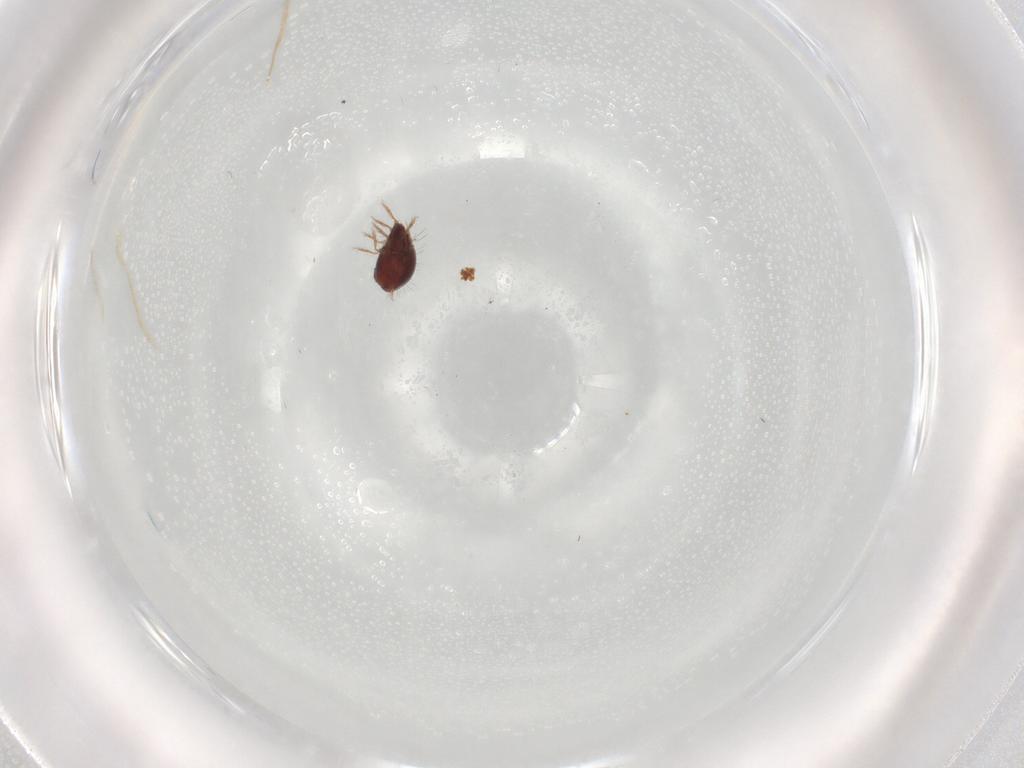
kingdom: Animalia
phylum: Arthropoda
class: Arachnida
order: Sarcoptiformes
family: Humerobatidae
